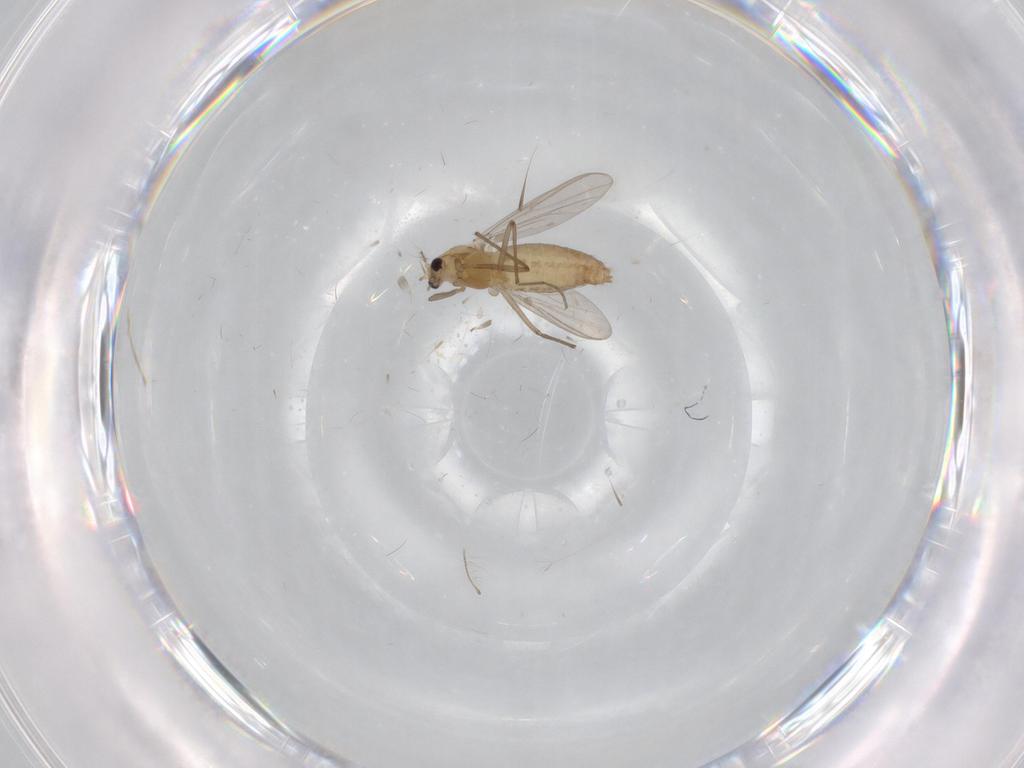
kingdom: Animalia
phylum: Arthropoda
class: Insecta
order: Diptera
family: Chironomidae
